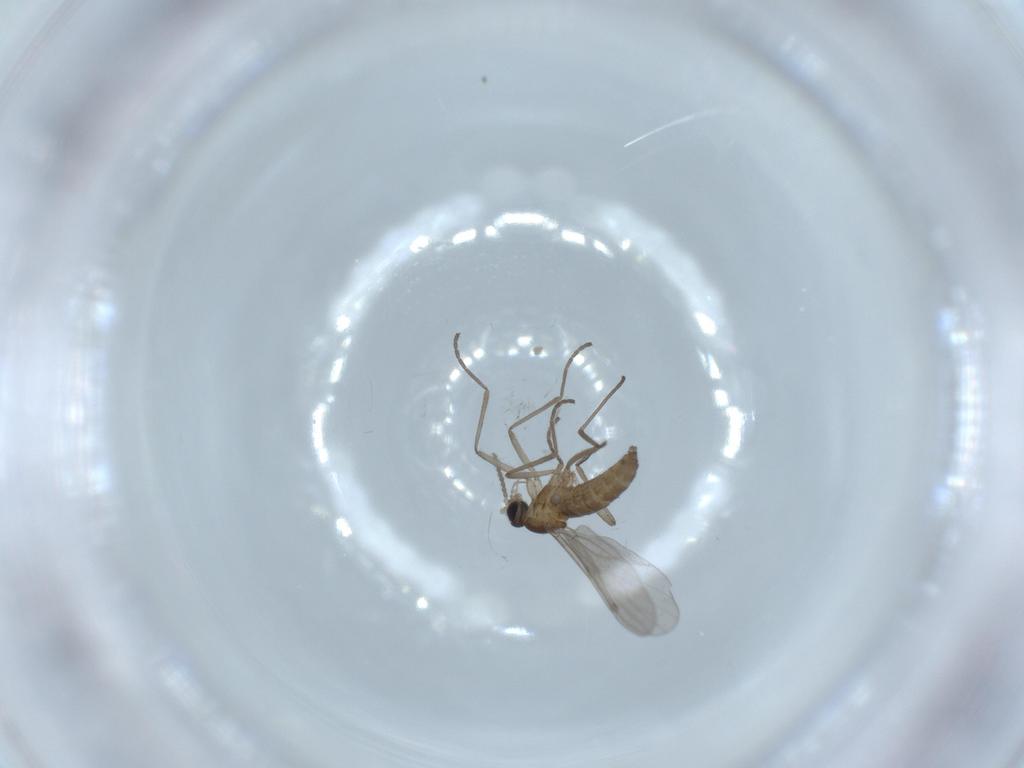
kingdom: Animalia
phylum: Arthropoda
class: Insecta
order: Diptera
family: Cecidomyiidae
